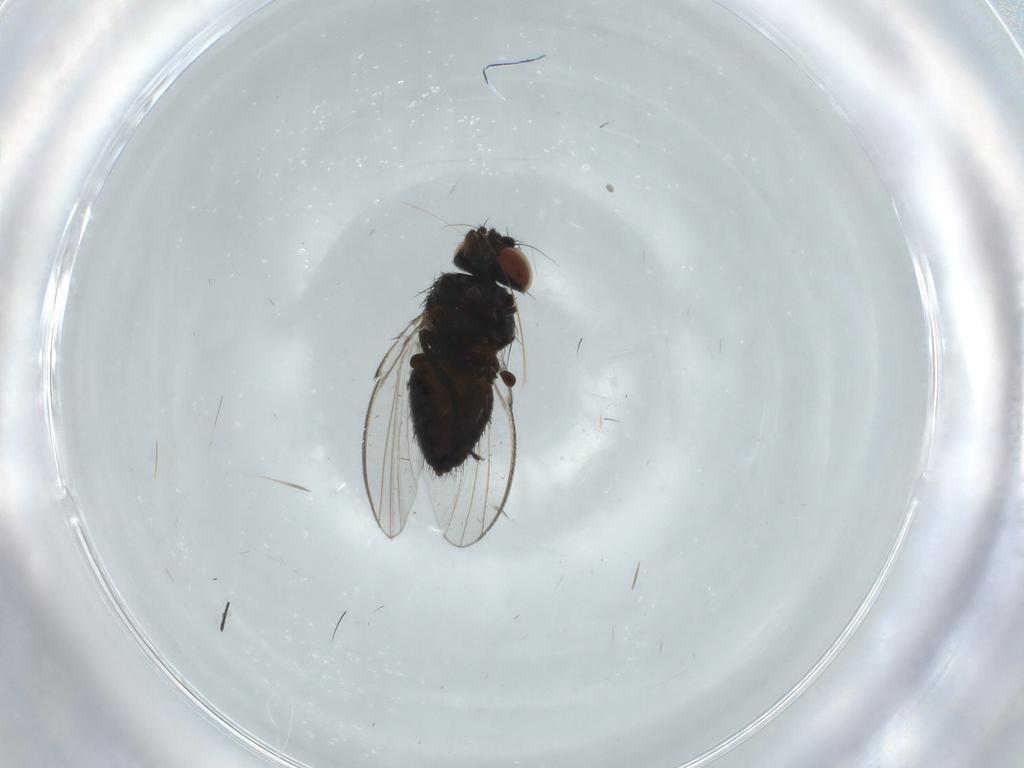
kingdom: Animalia
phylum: Arthropoda
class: Insecta
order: Diptera
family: Milichiidae
